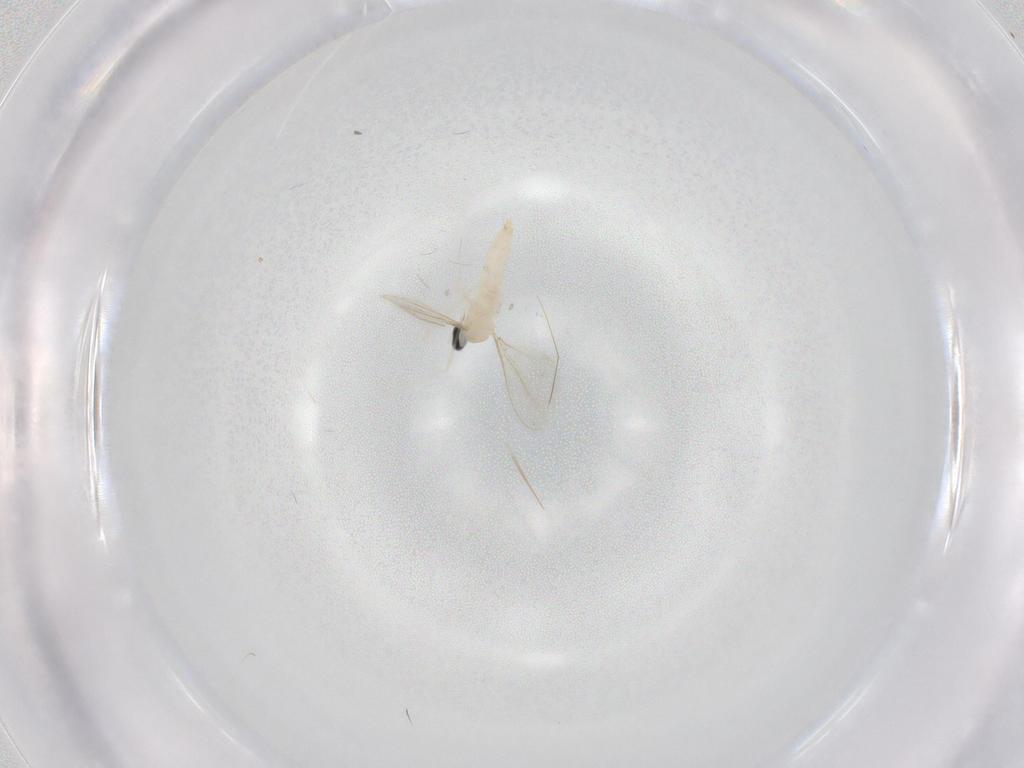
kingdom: Animalia
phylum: Arthropoda
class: Insecta
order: Diptera
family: Cecidomyiidae
